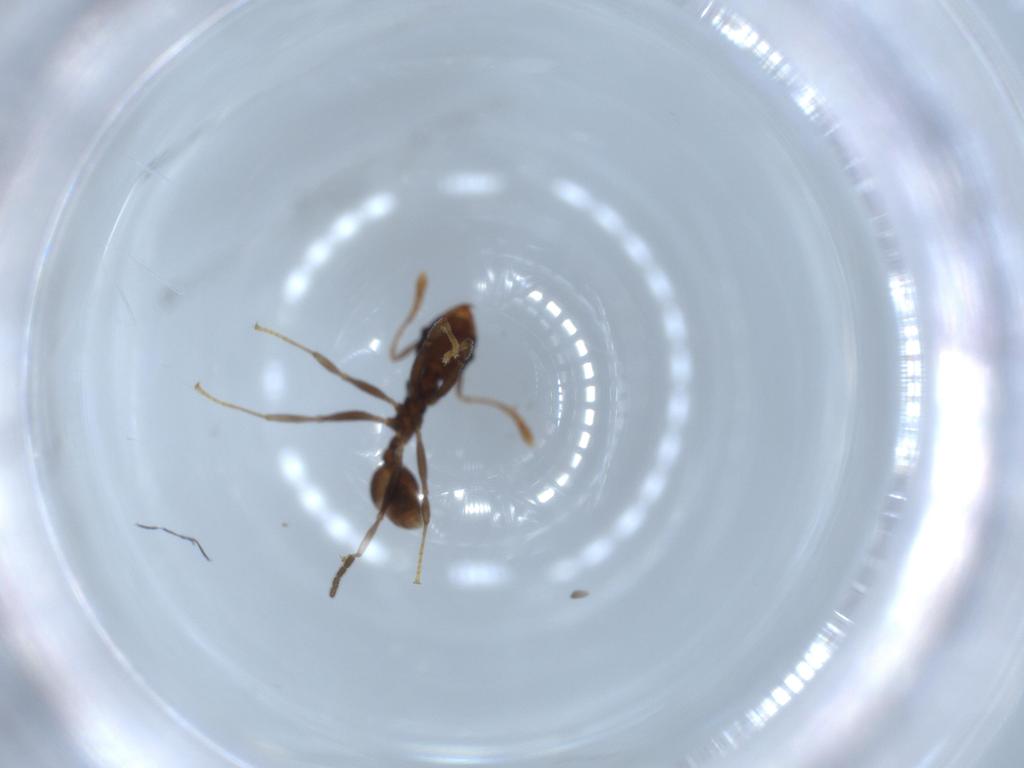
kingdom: Animalia
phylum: Arthropoda
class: Insecta
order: Hymenoptera
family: Formicidae
